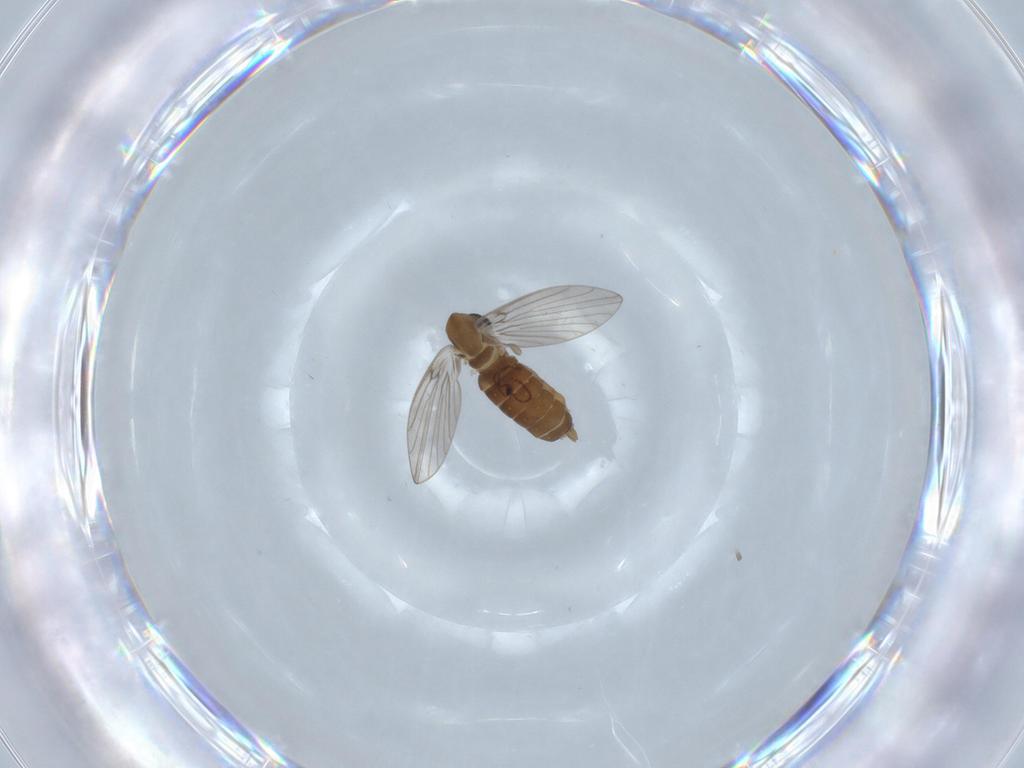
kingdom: Animalia
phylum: Arthropoda
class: Insecta
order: Diptera
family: Psychodidae
